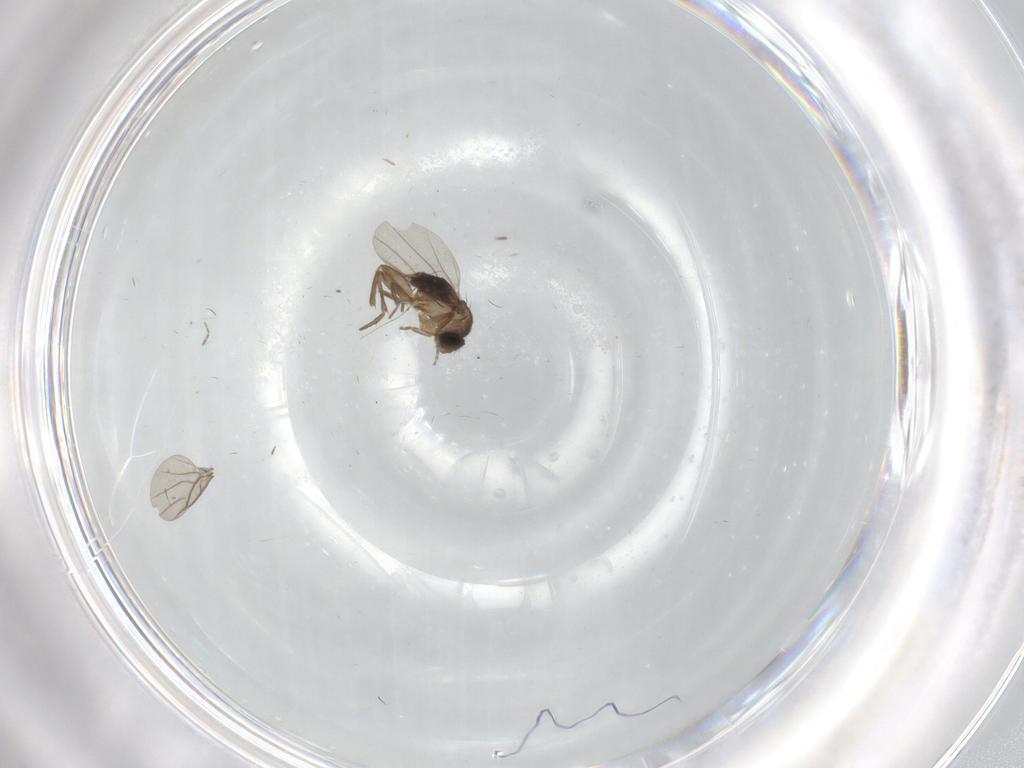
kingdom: Animalia
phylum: Arthropoda
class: Insecta
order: Diptera
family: Cecidomyiidae
